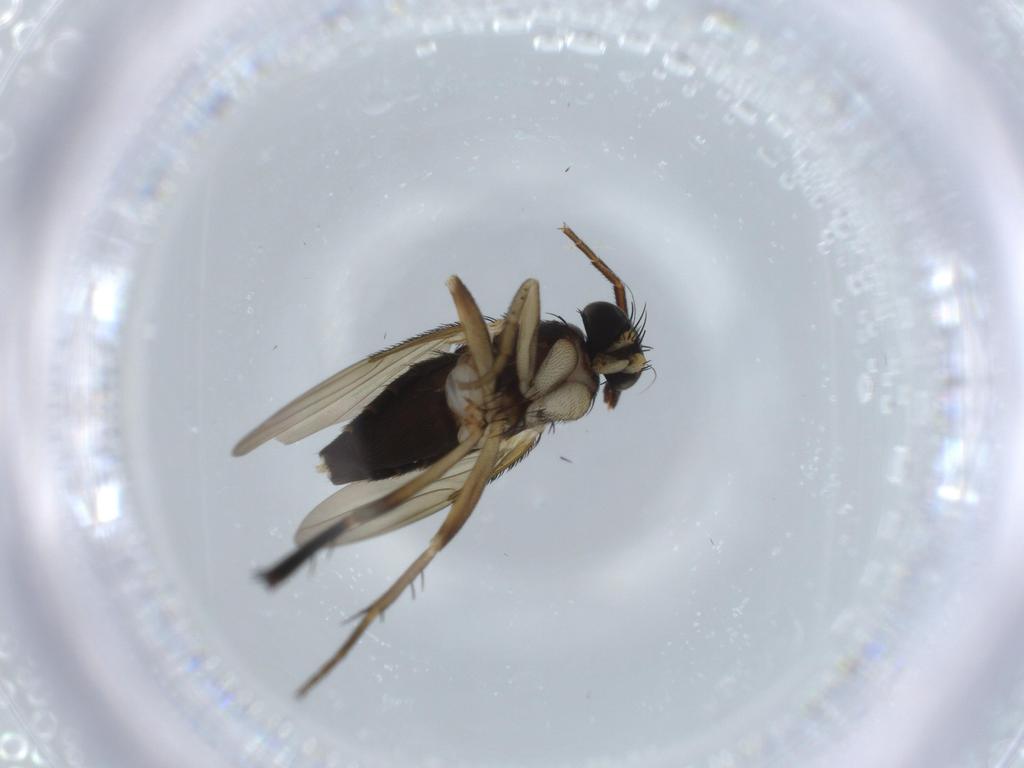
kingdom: Animalia
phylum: Arthropoda
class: Insecta
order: Diptera
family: Phoridae
